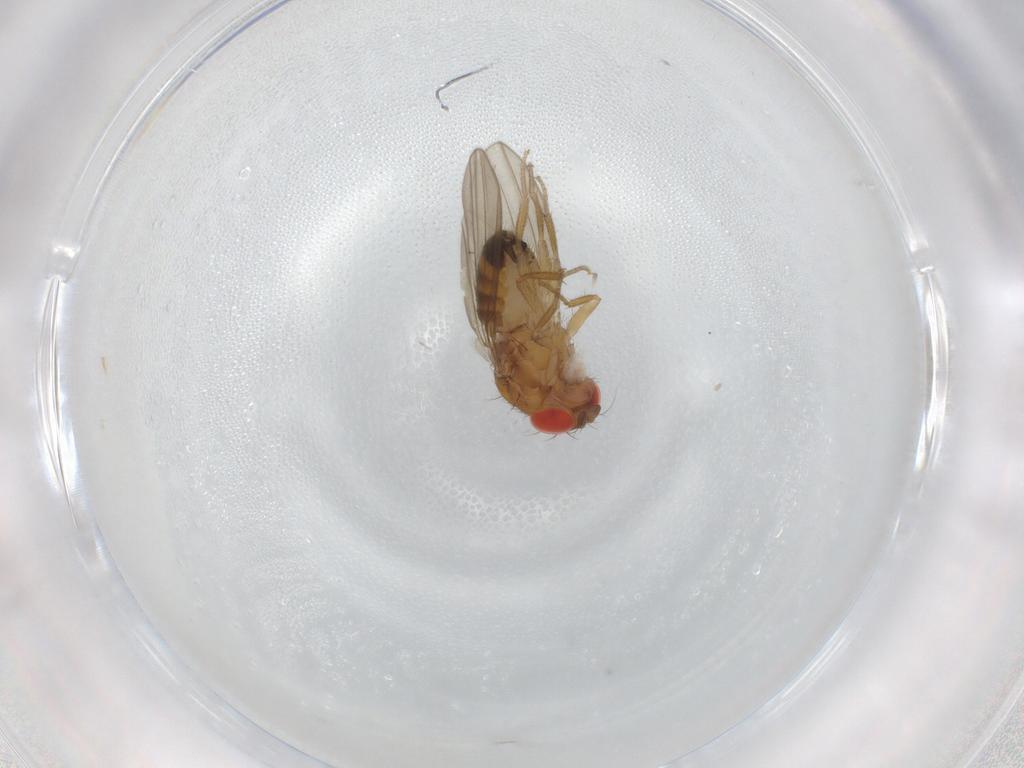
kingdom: Animalia
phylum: Arthropoda
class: Insecta
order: Diptera
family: Drosophilidae
